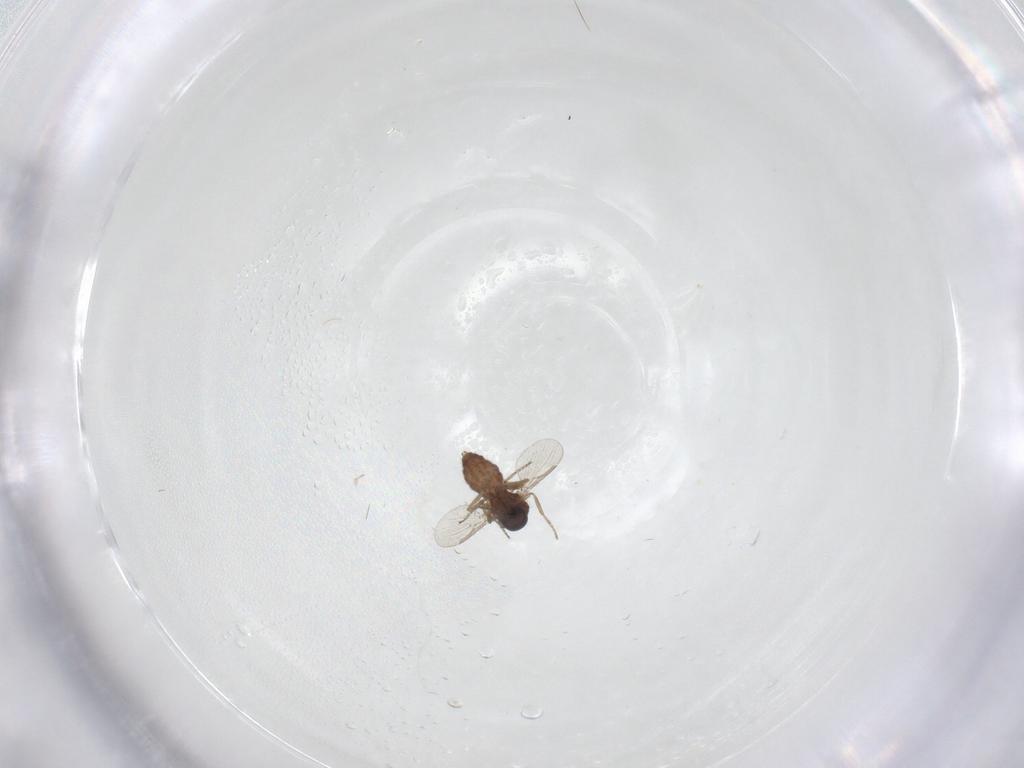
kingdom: Animalia
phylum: Arthropoda
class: Insecta
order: Diptera
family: Ceratopogonidae
